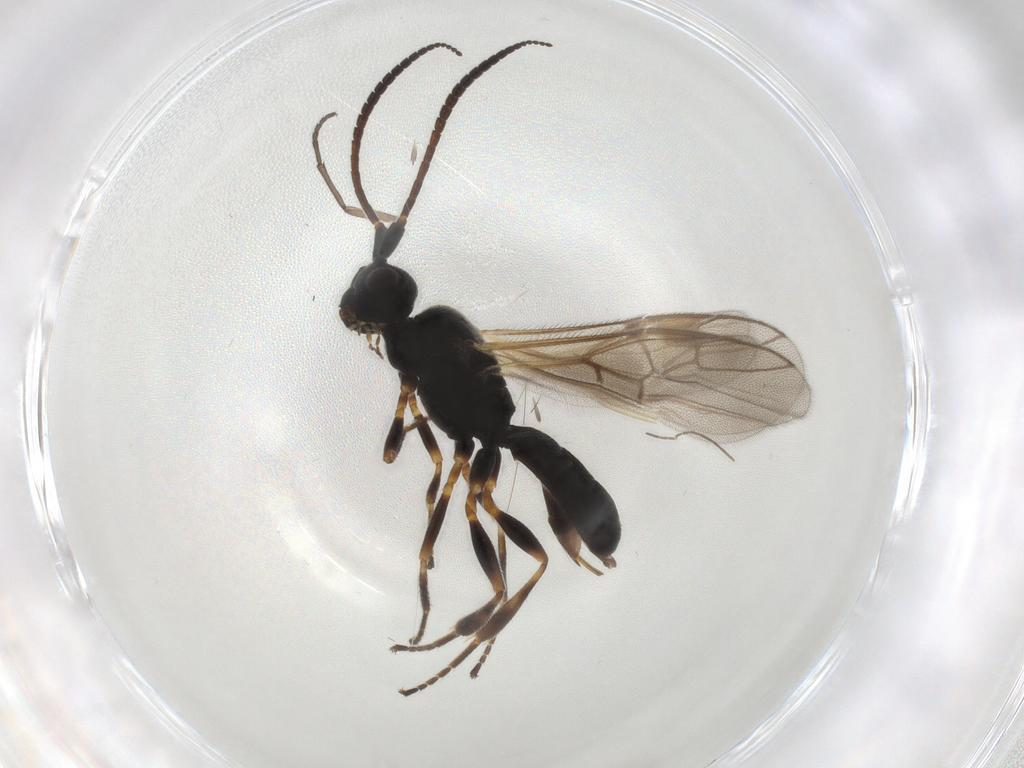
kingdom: Animalia
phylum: Arthropoda
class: Insecta
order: Hymenoptera
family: Braconidae
